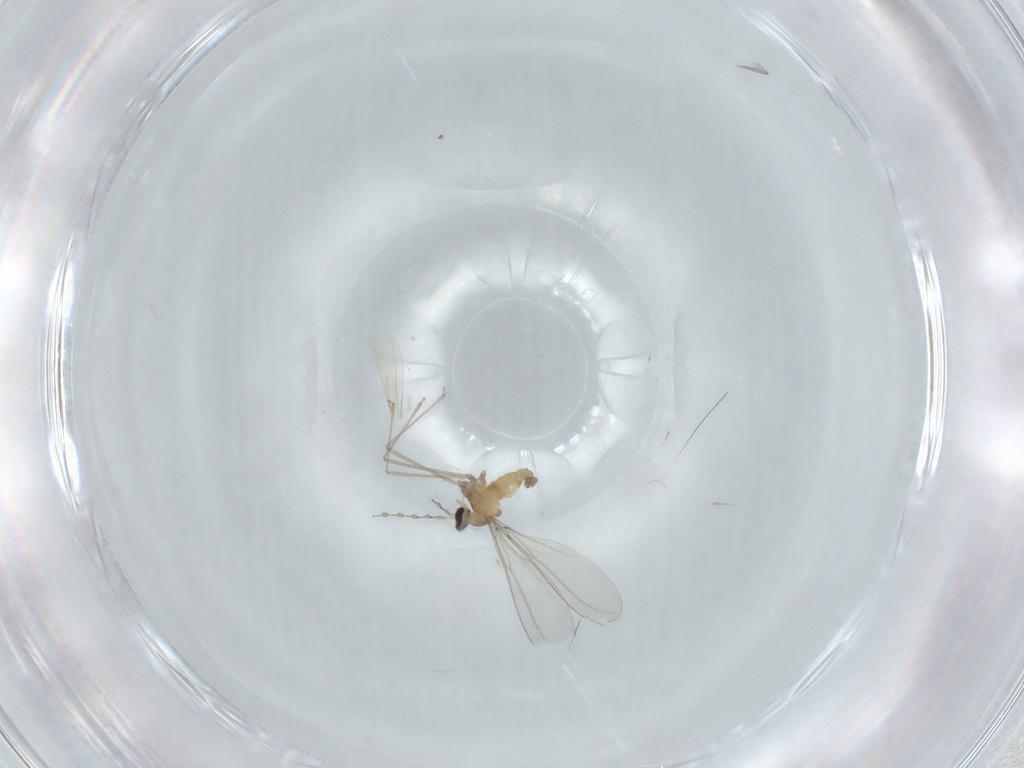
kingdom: Animalia
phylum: Arthropoda
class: Insecta
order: Diptera
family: Cecidomyiidae
